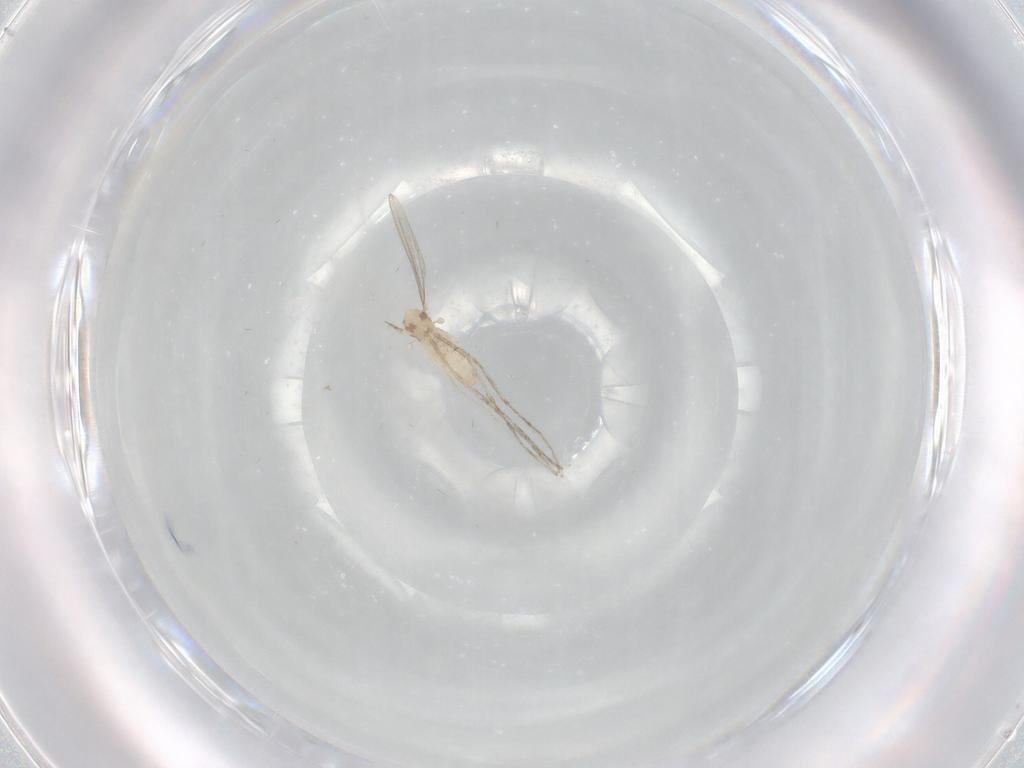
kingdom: Animalia
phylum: Arthropoda
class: Insecta
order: Diptera
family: Cecidomyiidae
